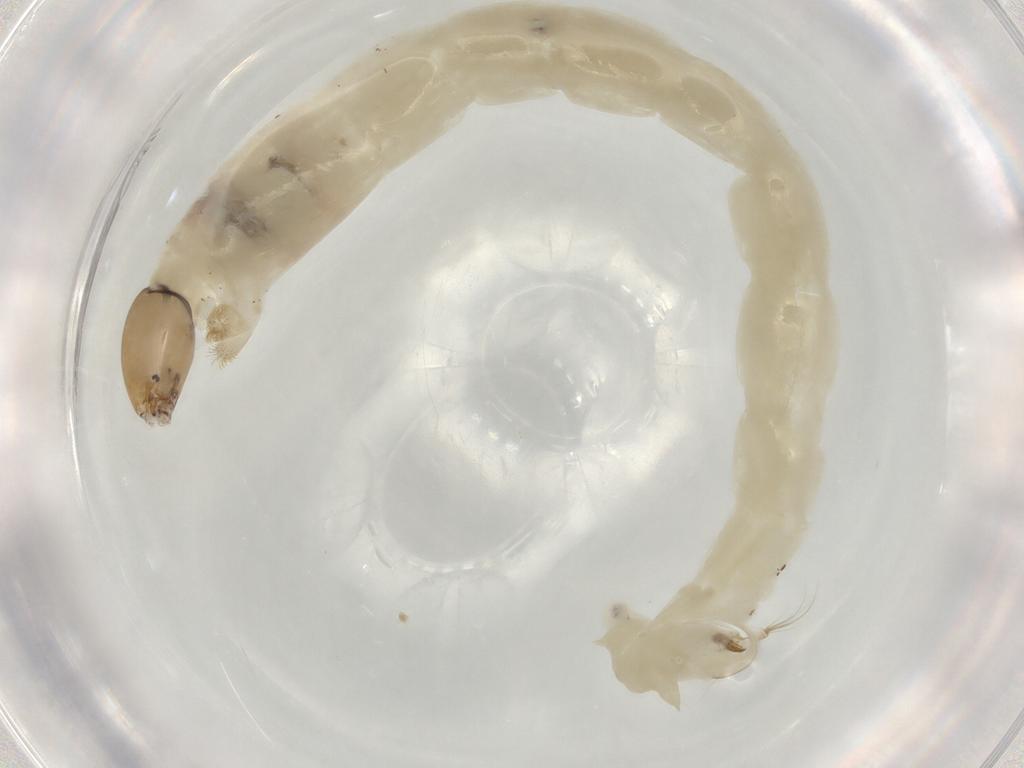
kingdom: Animalia
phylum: Arthropoda
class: Insecta
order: Diptera
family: Chironomidae
